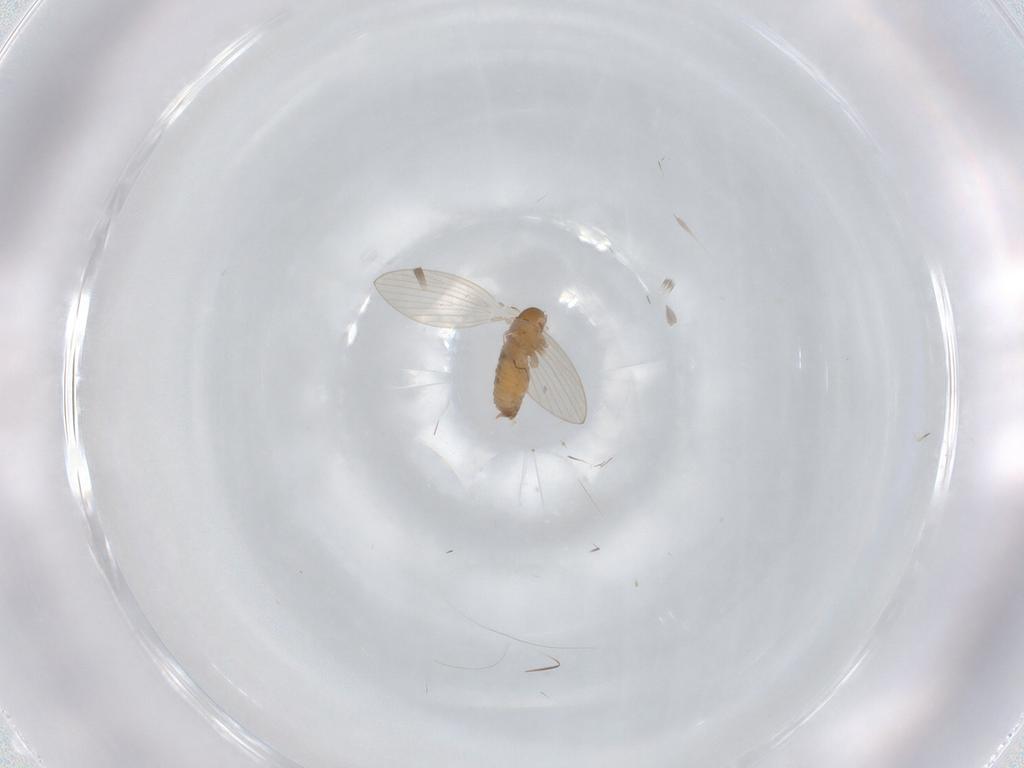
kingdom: Animalia
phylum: Arthropoda
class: Insecta
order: Diptera
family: Psychodidae
